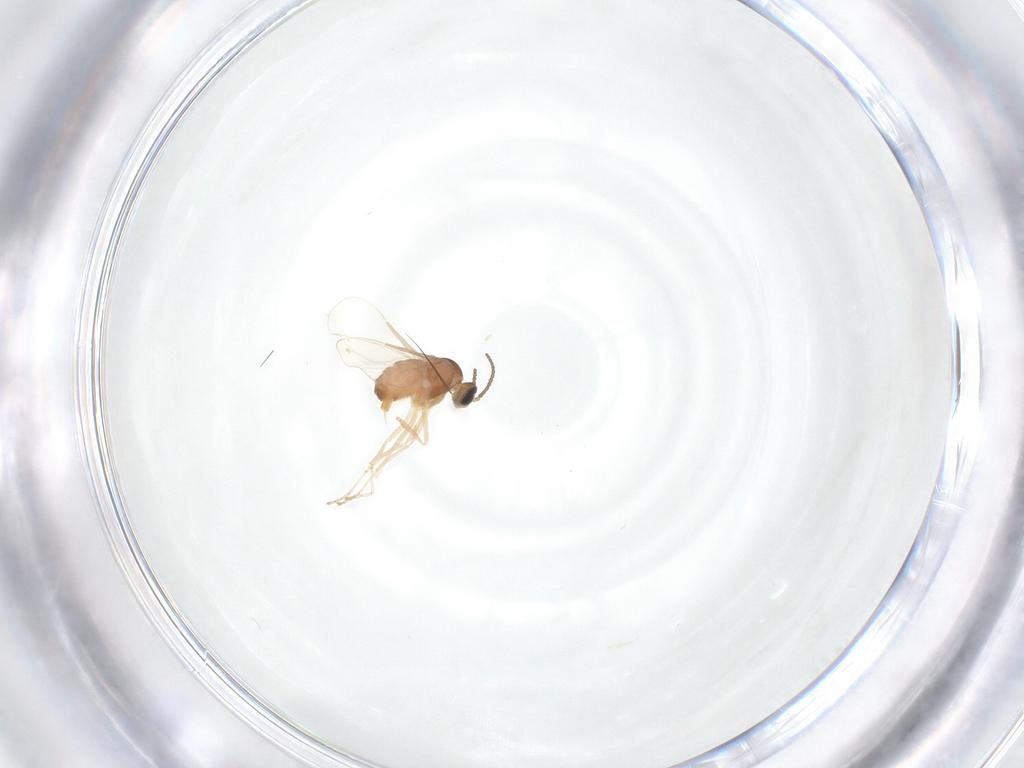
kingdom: Animalia
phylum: Arthropoda
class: Insecta
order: Diptera
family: Cecidomyiidae
